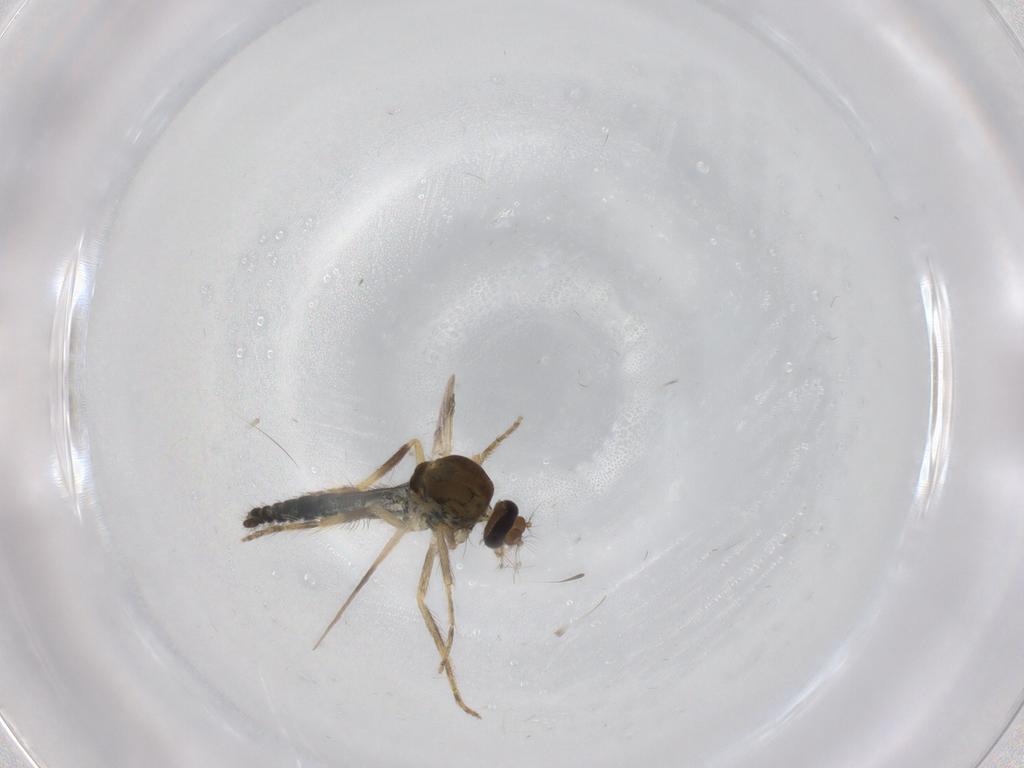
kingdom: Animalia
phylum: Arthropoda
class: Insecta
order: Diptera
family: Ceratopogonidae
